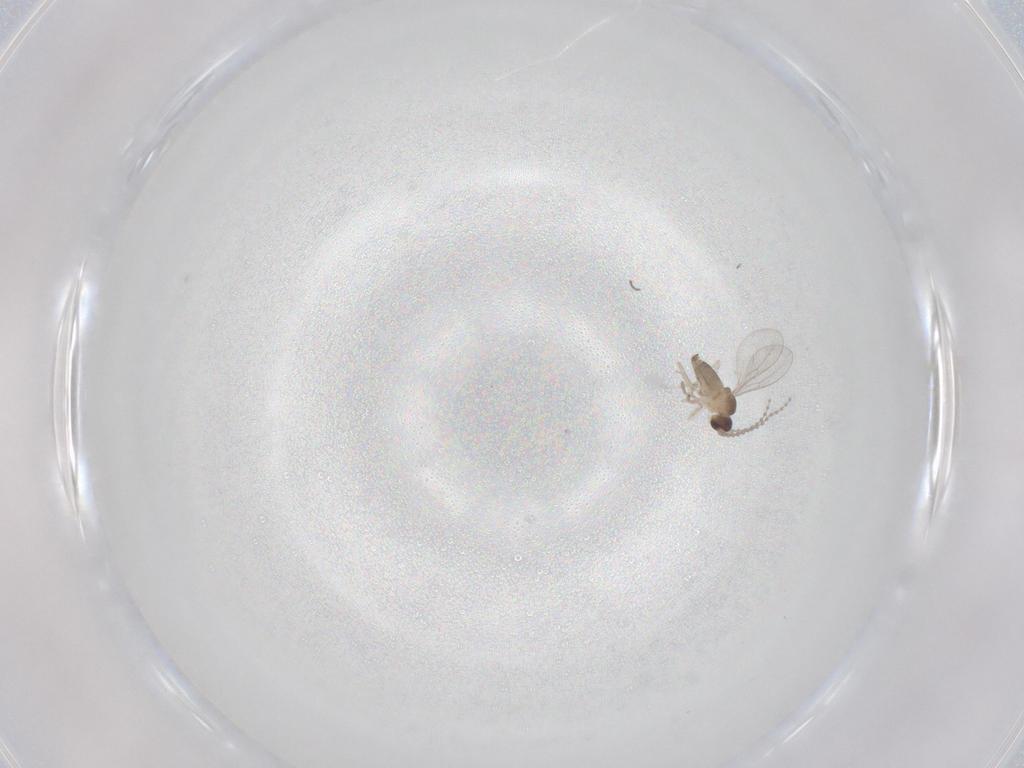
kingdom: Animalia
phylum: Arthropoda
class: Insecta
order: Diptera
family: Cecidomyiidae
